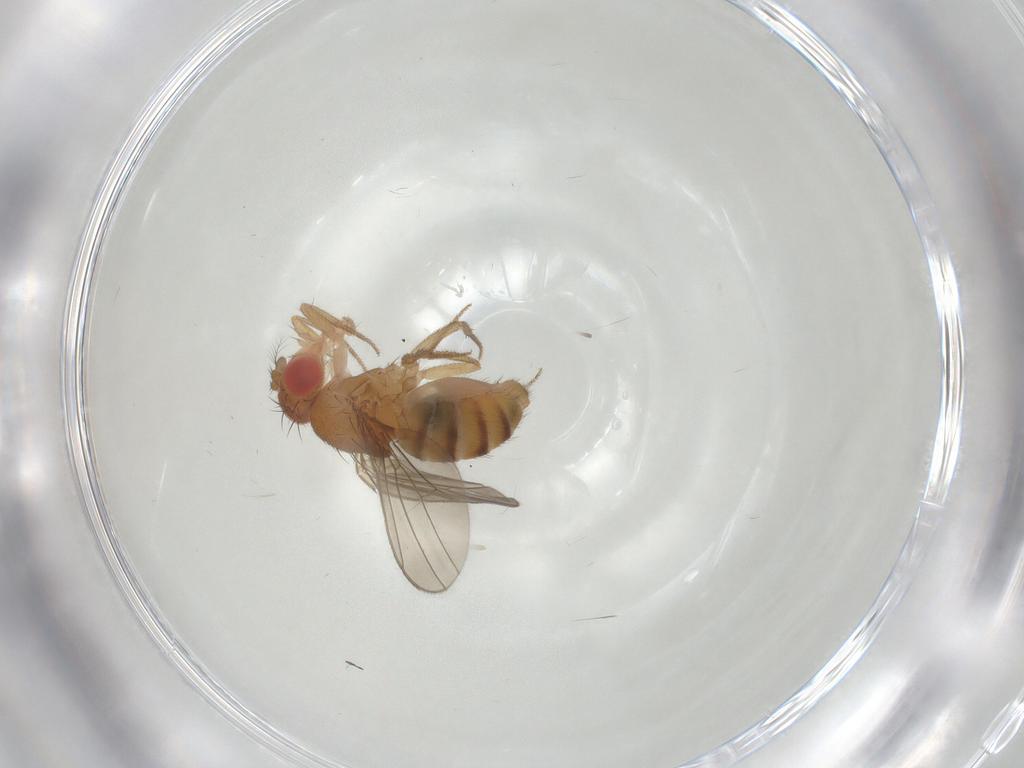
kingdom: Animalia
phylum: Arthropoda
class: Insecta
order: Diptera
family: Drosophilidae
